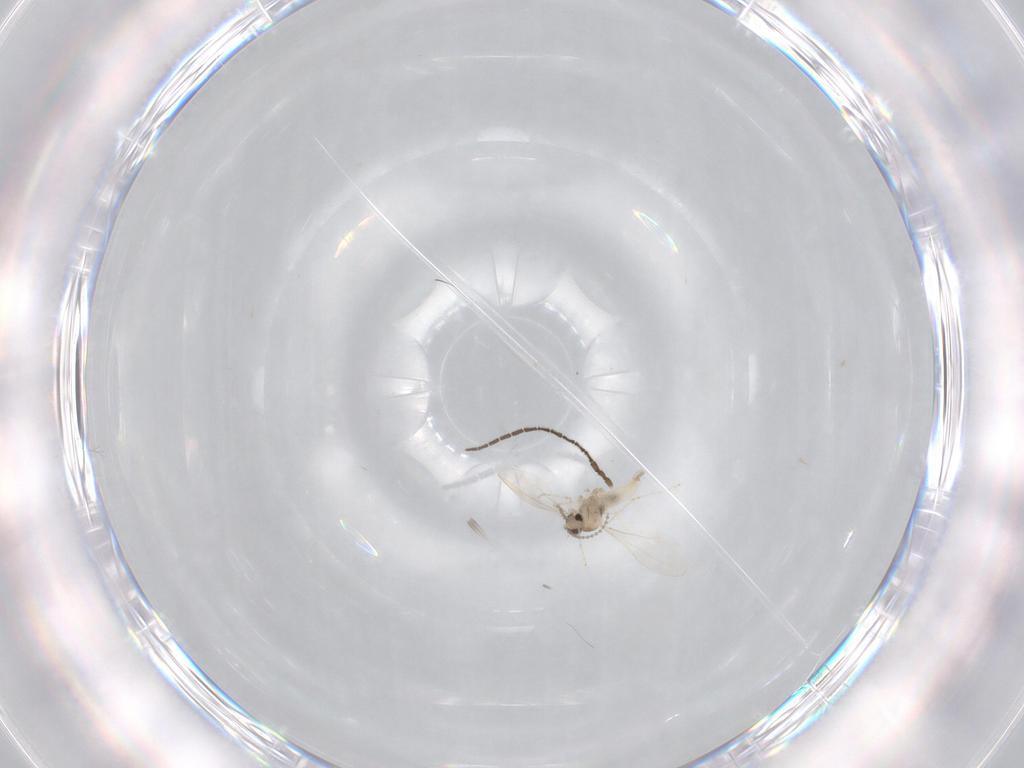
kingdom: Animalia
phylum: Arthropoda
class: Insecta
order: Diptera
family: Sciaridae
